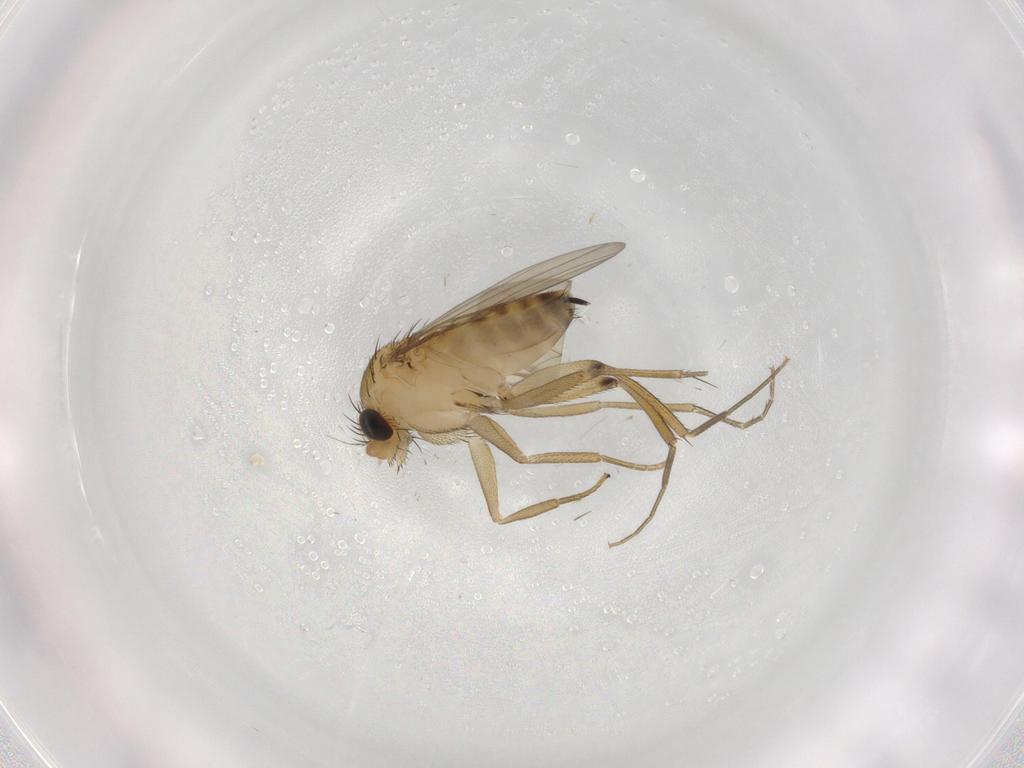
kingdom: Animalia
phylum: Arthropoda
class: Insecta
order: Diptera
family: Phoridae
